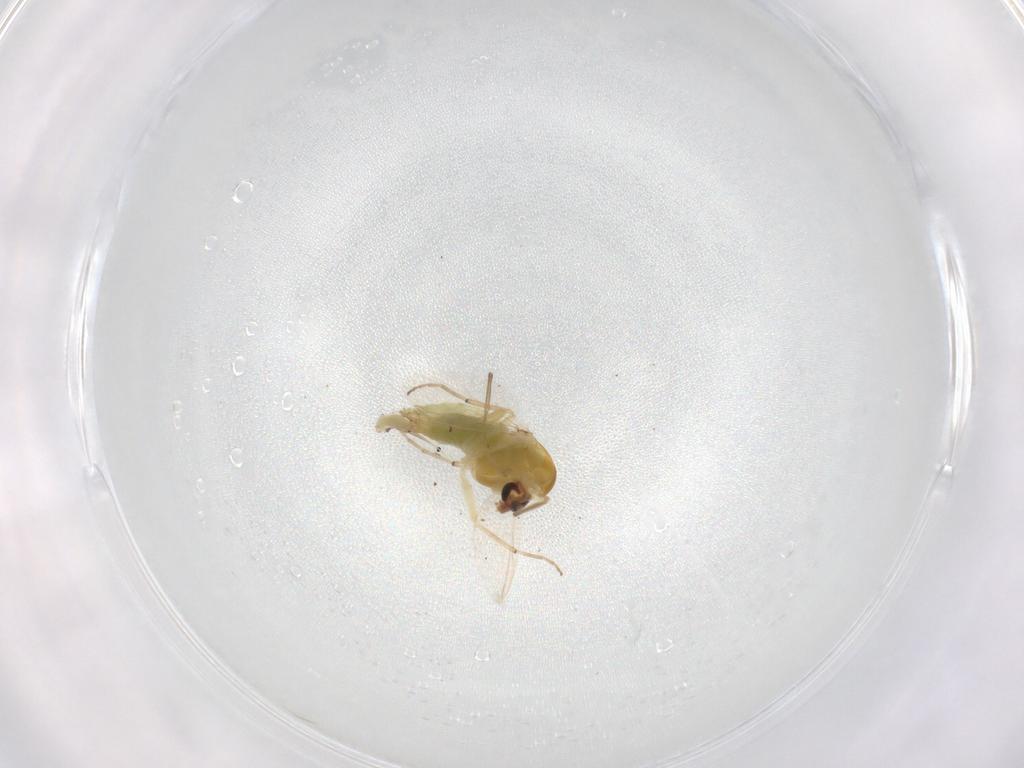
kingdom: Animalia
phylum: Arthropoda
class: Insecta
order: Diptera
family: Chironomidae
